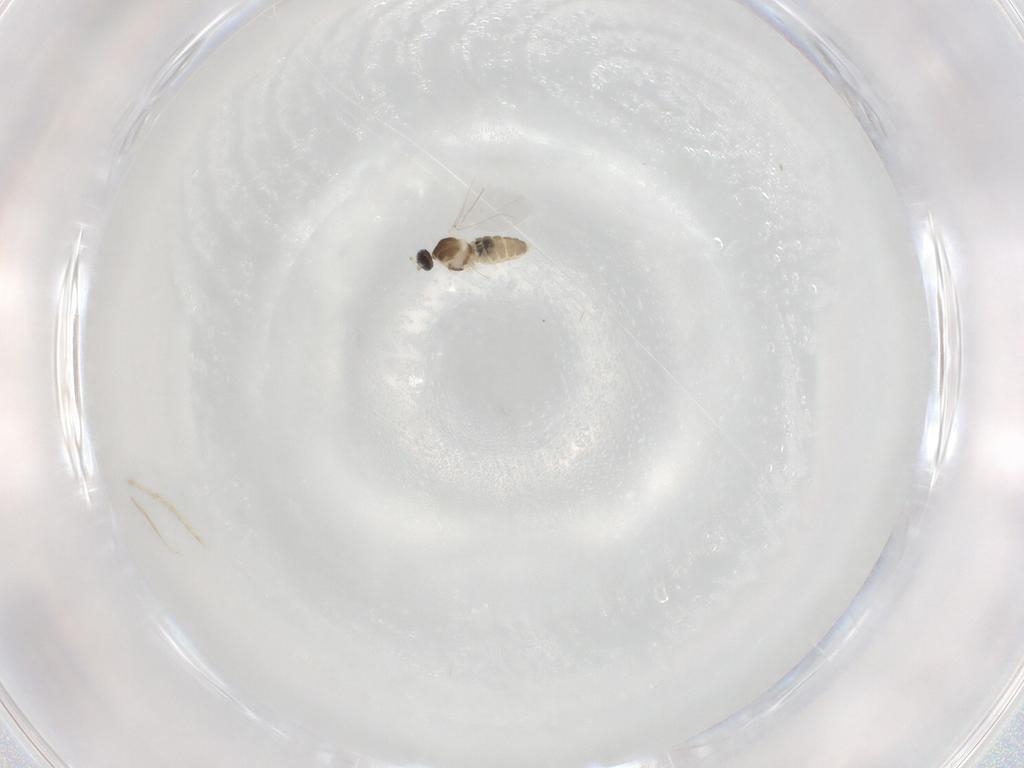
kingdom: Animalia
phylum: Arthropoda
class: Insecta
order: Diptera
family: Cecidomyiidae
